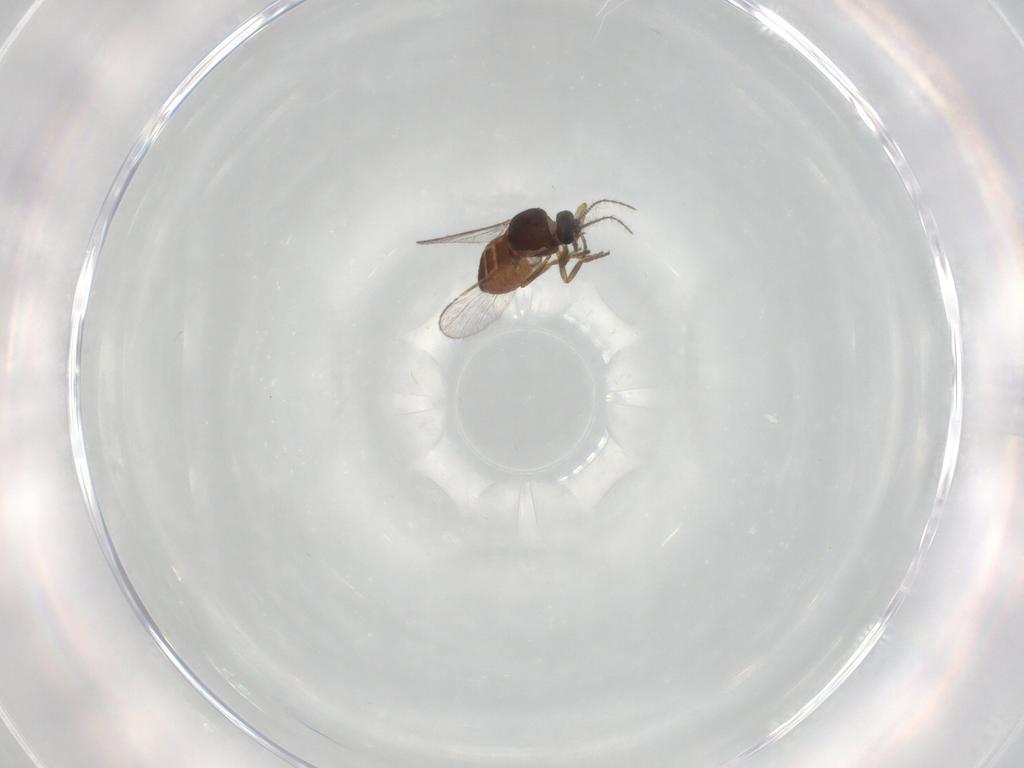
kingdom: Animalia
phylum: Arthropoda
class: Insecta
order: Diptera
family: Ceratopogonidae
